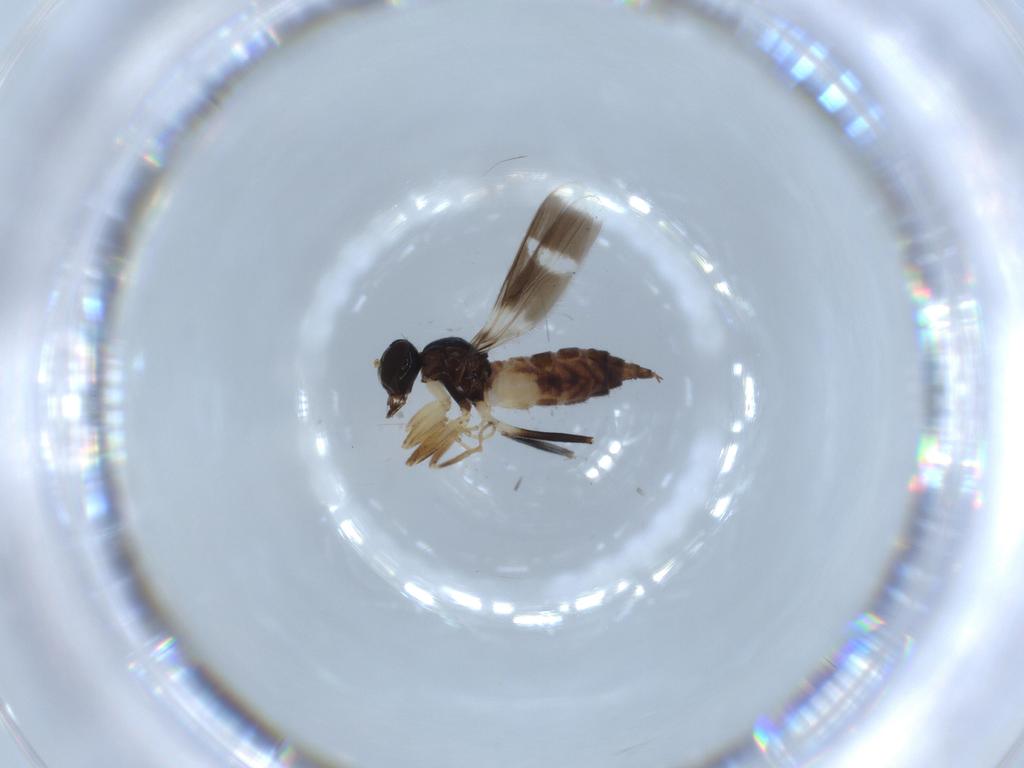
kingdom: Animalia
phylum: Arthropoda
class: Insecta
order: Diptera
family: Hybotidae
